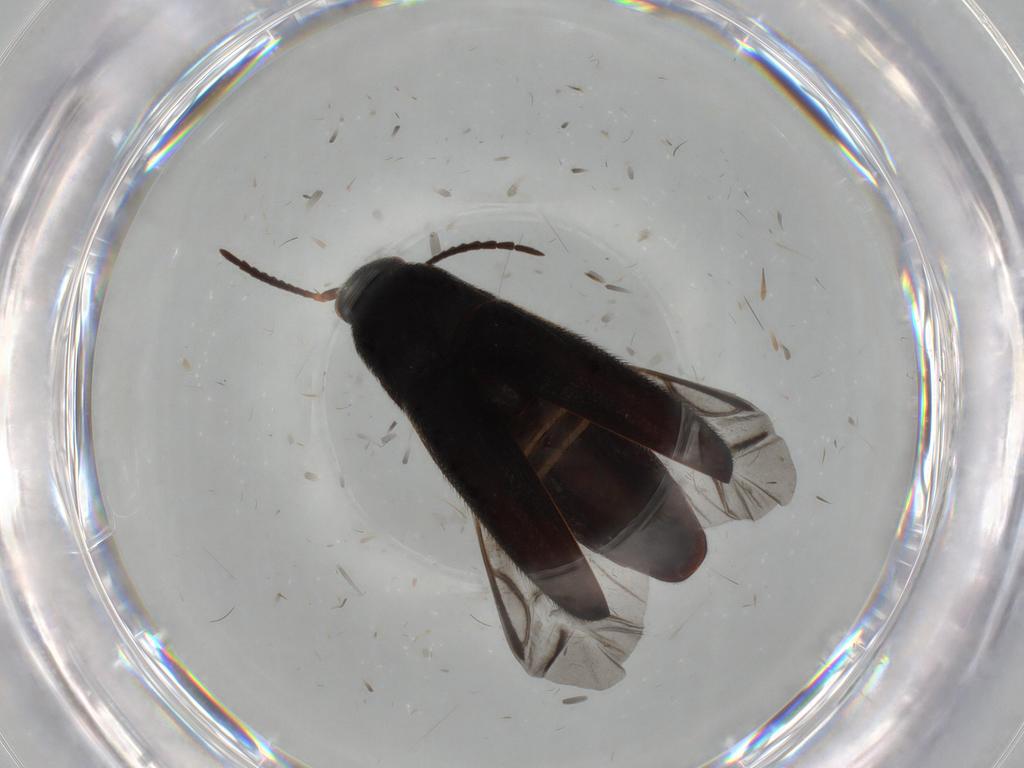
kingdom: Animalia
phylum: Arthropoda
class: Insecta
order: Coleoptera
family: Eucnemidae
